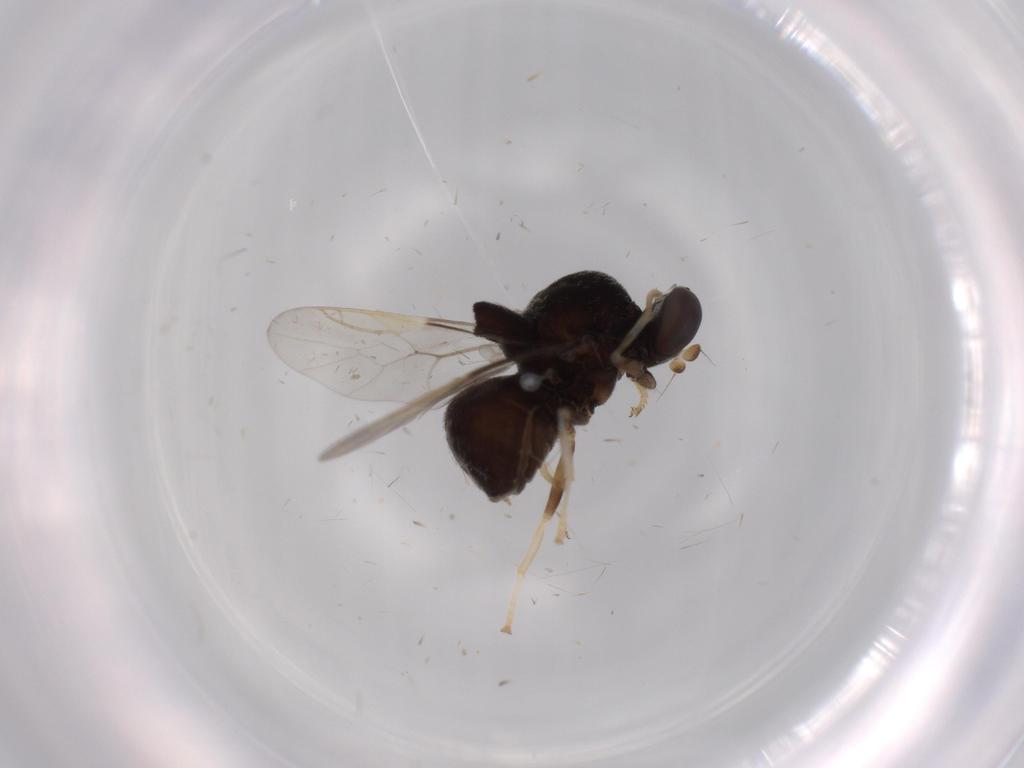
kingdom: Animalia
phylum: Arthropoda
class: Insecta
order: Diptera
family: Stratiomyidae
